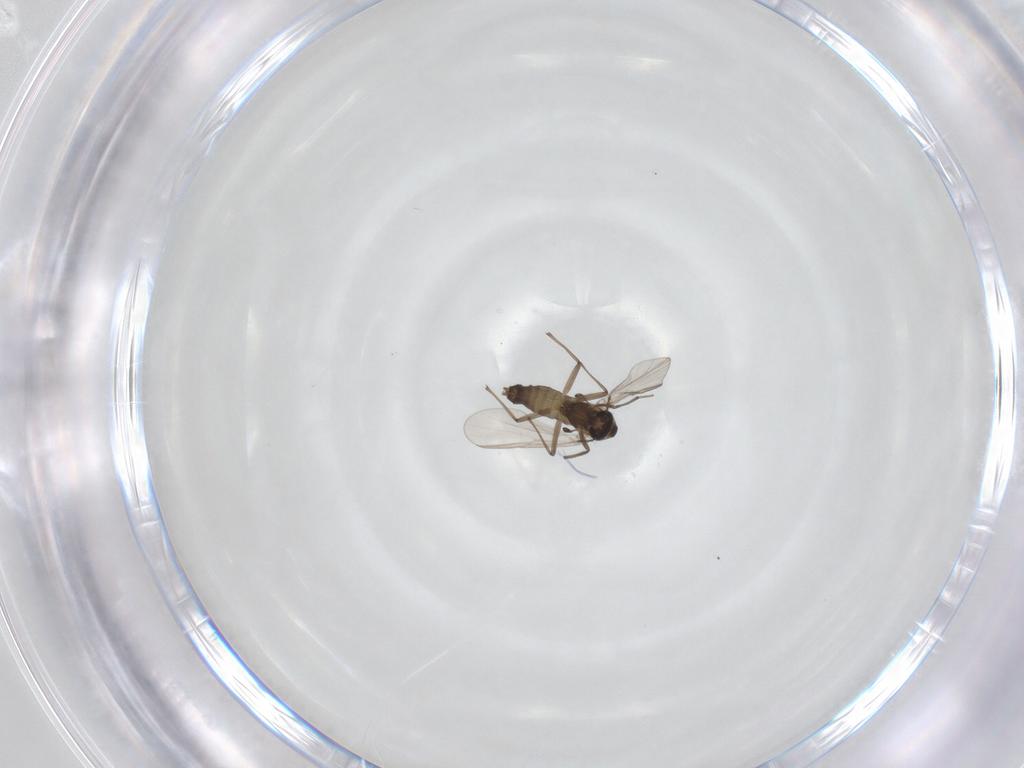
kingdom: Animalia
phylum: Arthropoda
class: Insecta
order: Diptera
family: Chironomidae
